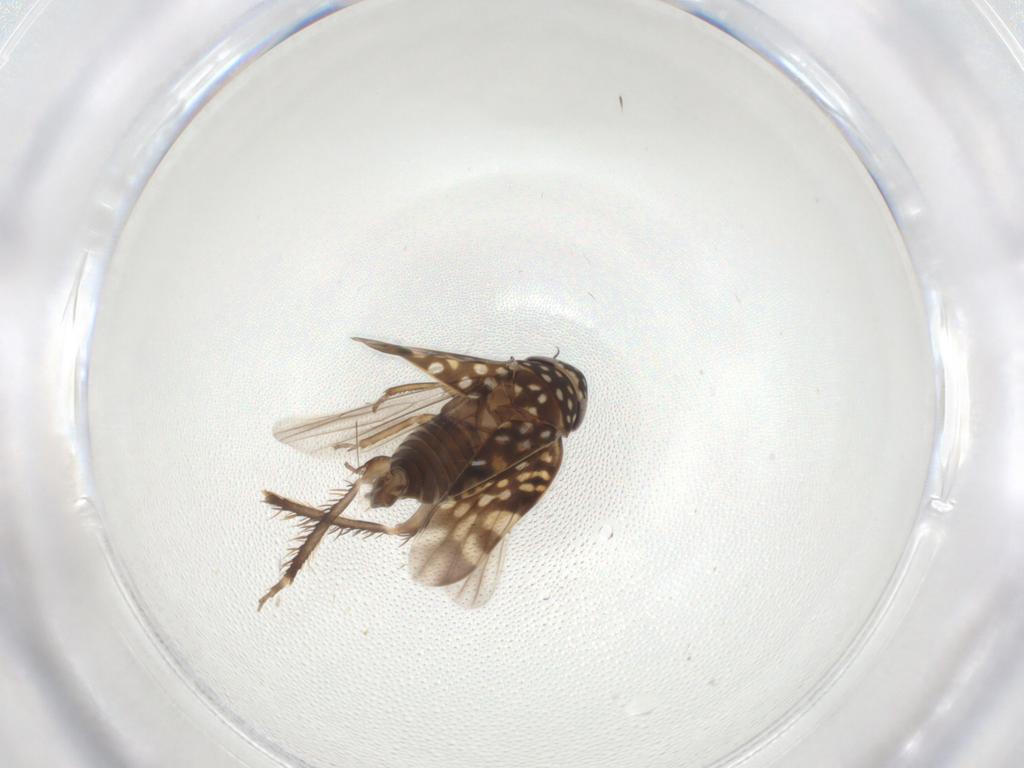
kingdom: Animalia
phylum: Arthropoda
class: Insecta
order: Hemiptera
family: Cicadellidae
